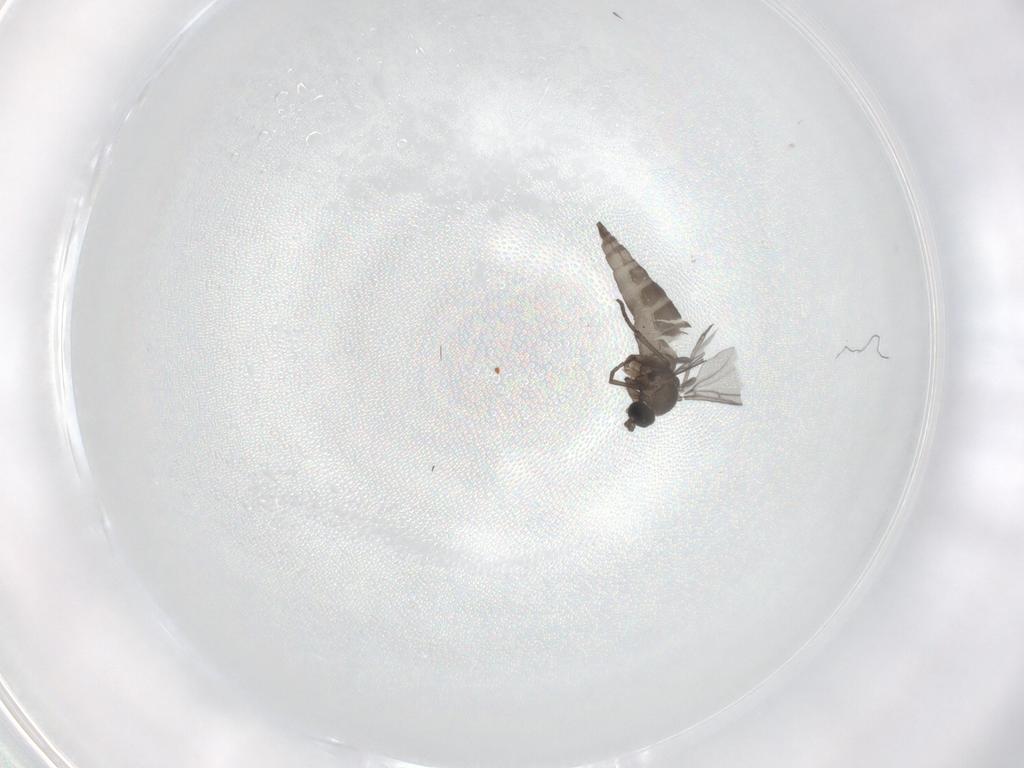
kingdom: Animalia
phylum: Arthropoda
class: Insecta
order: Diptera
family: Sciaridae
